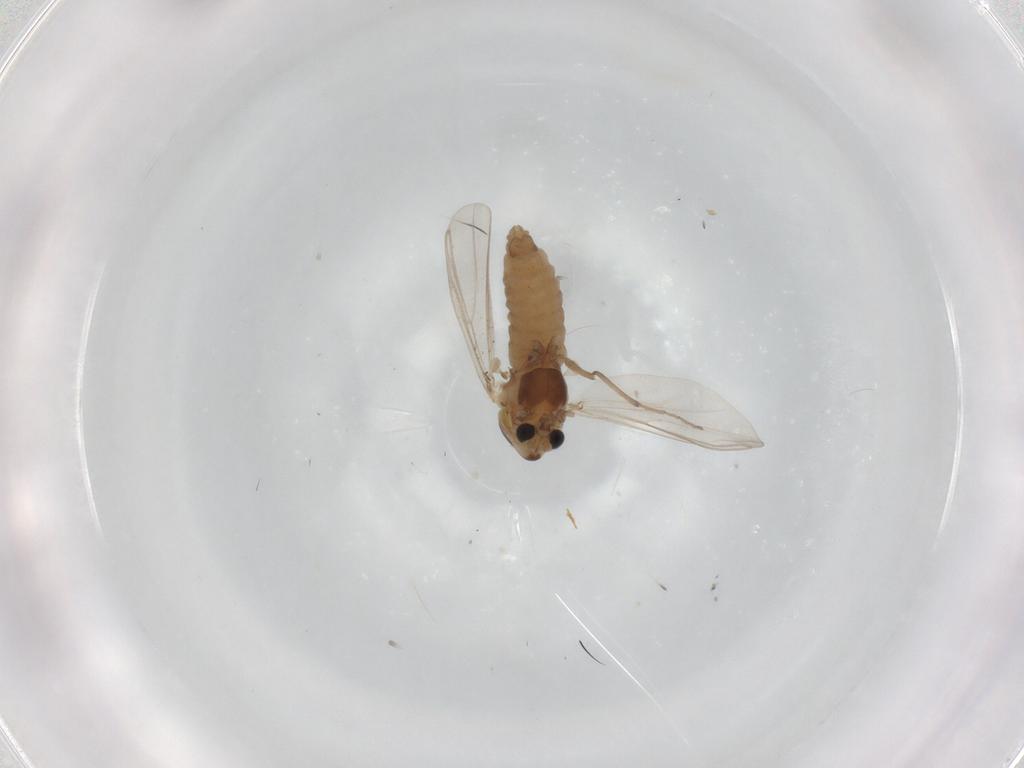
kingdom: Animalia
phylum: Arthropoda
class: Insecta
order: Diptera
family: Chironomidae
